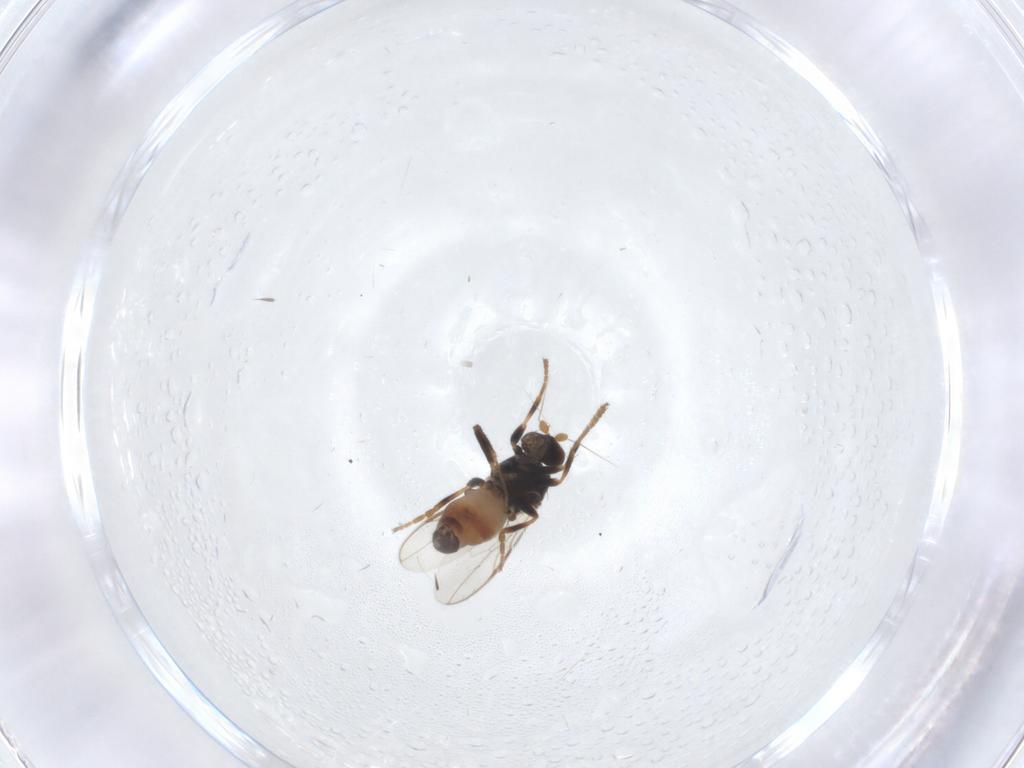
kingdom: Animalia
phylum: Arthropoda
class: Insecta
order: Diptera
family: Sphaeroceridae
